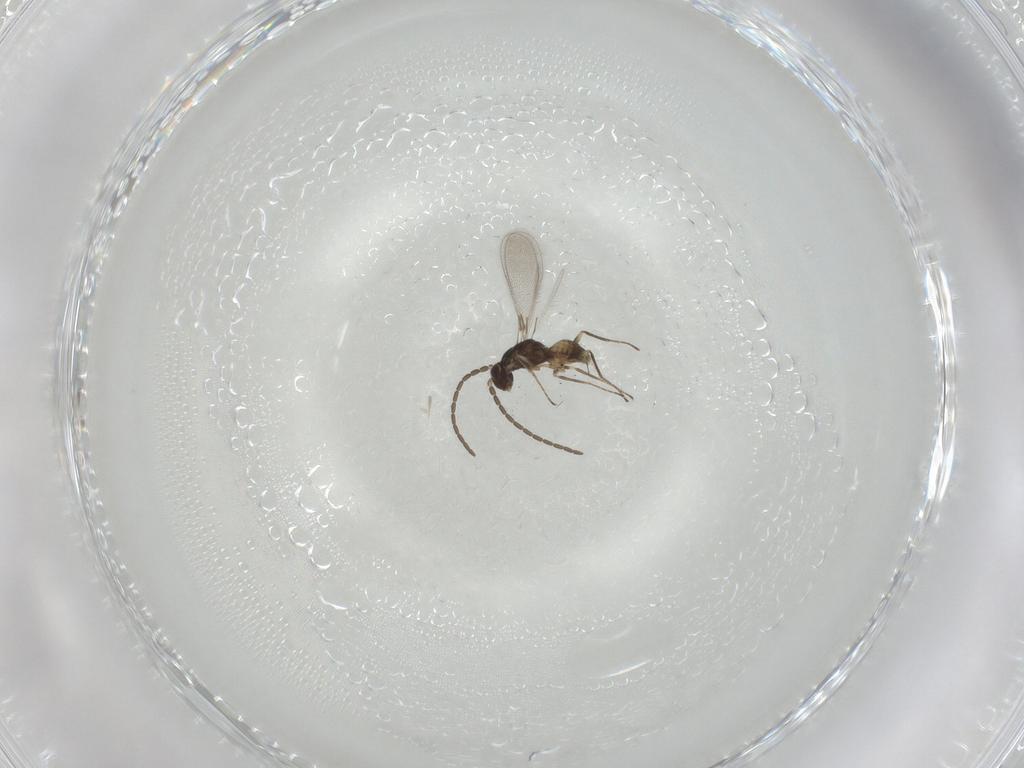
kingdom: Animalia
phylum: Arthropoda
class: Insecta
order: Hymenoptera
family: Mymaridae
